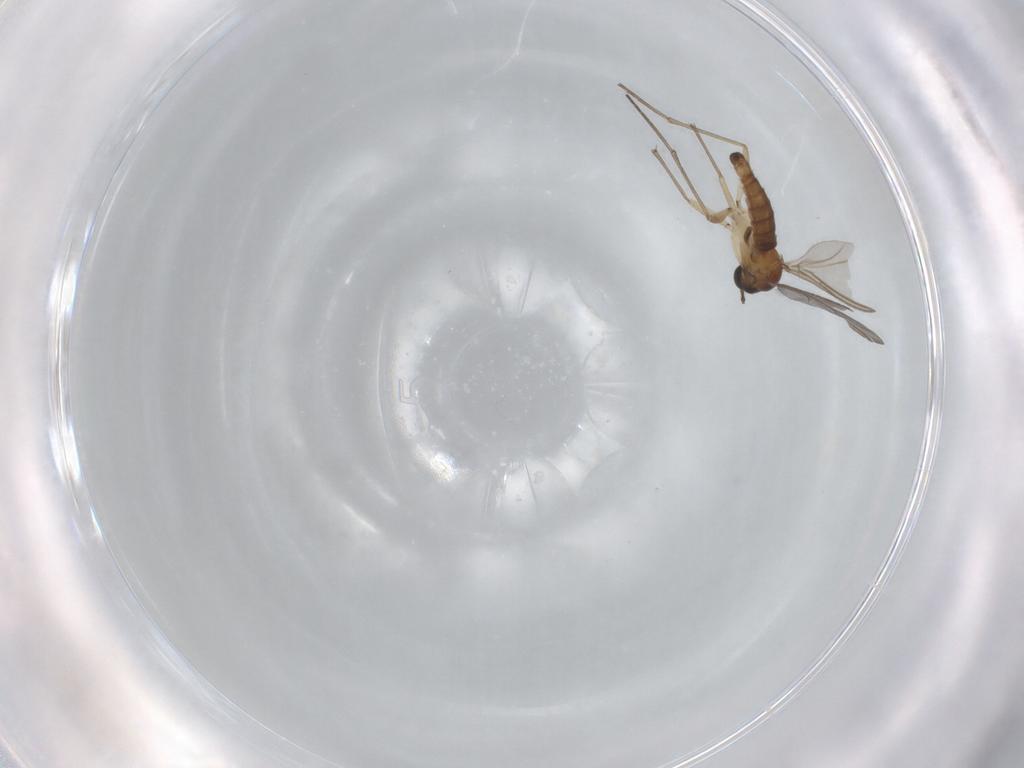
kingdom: Animalia
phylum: Arthropoda
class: Insecta
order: Diptera
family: Sciaridae
